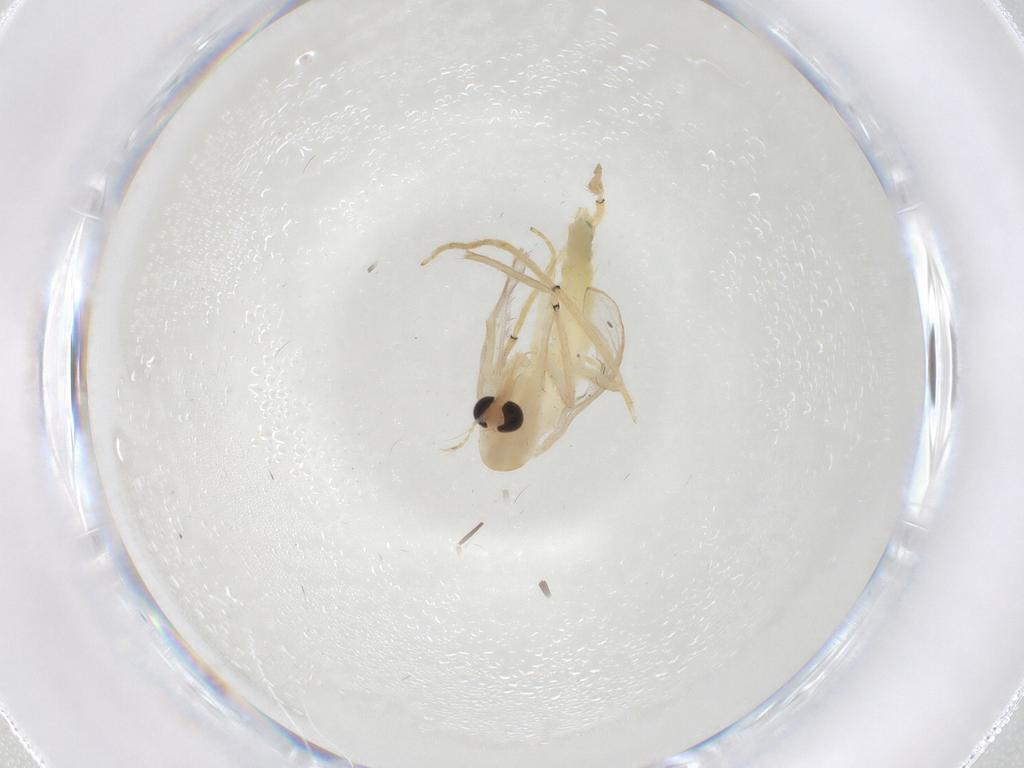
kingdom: Animalia
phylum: Arthropoda
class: Insecta
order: Diptera
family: Chironomidae
